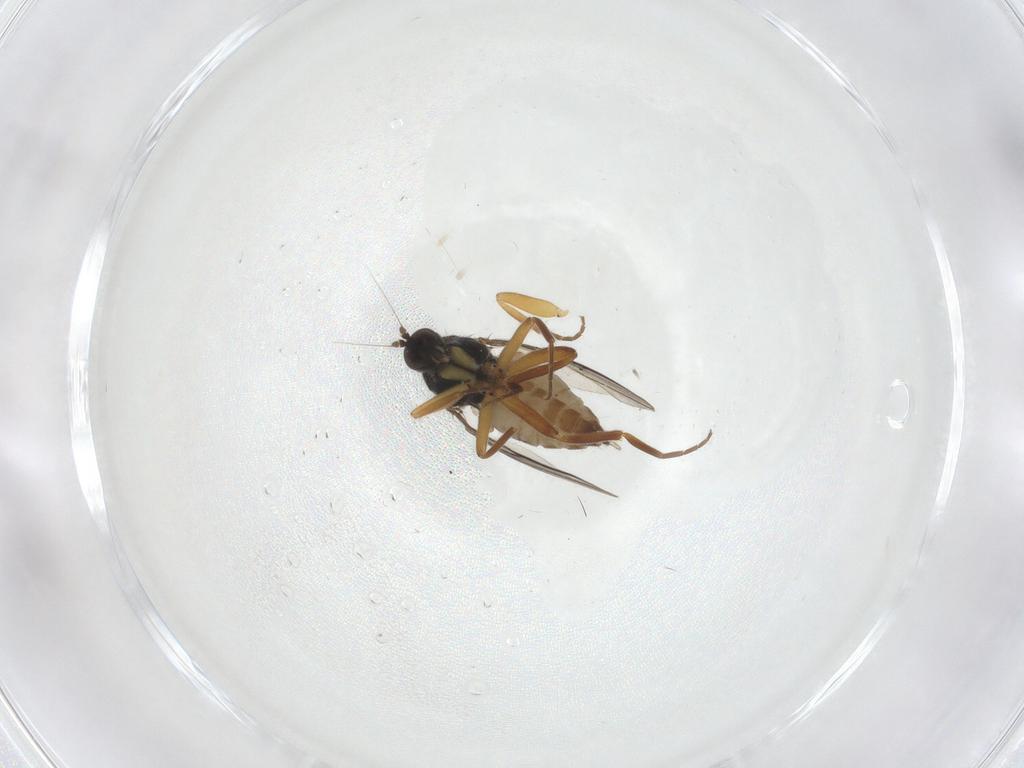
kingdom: Animalia
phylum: Arthropoda
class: Insecta
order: Diptera
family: Hybotidae
